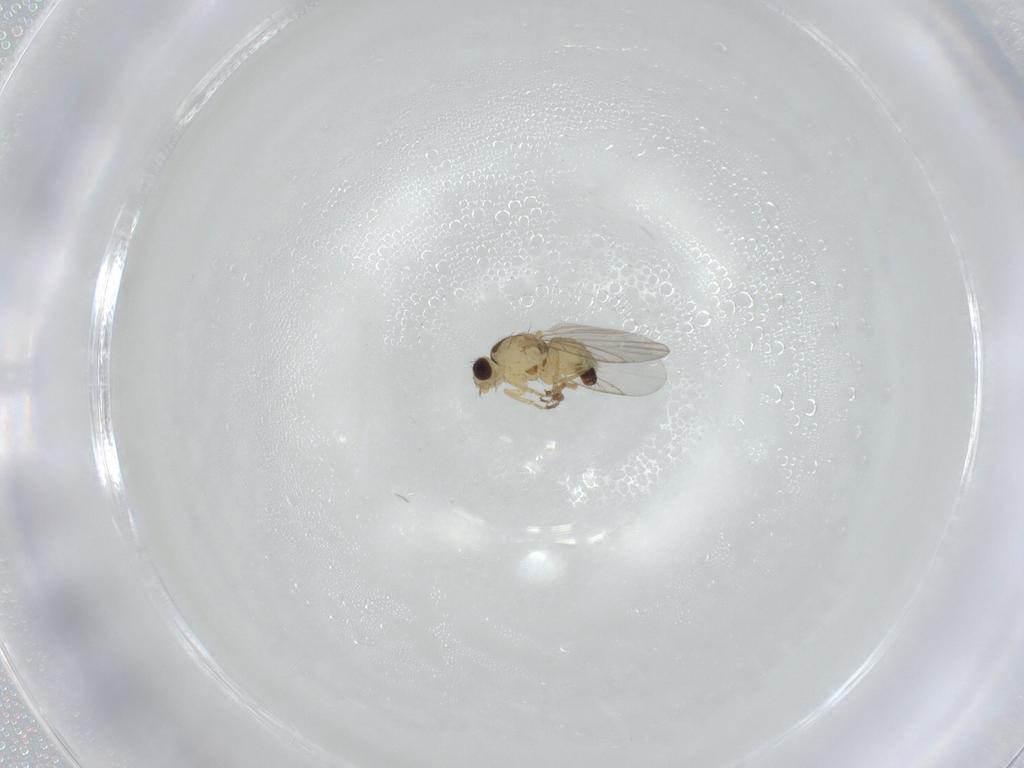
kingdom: Animalia
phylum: Arthropoda
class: Insecta
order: Diptera
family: Agromyzidae
